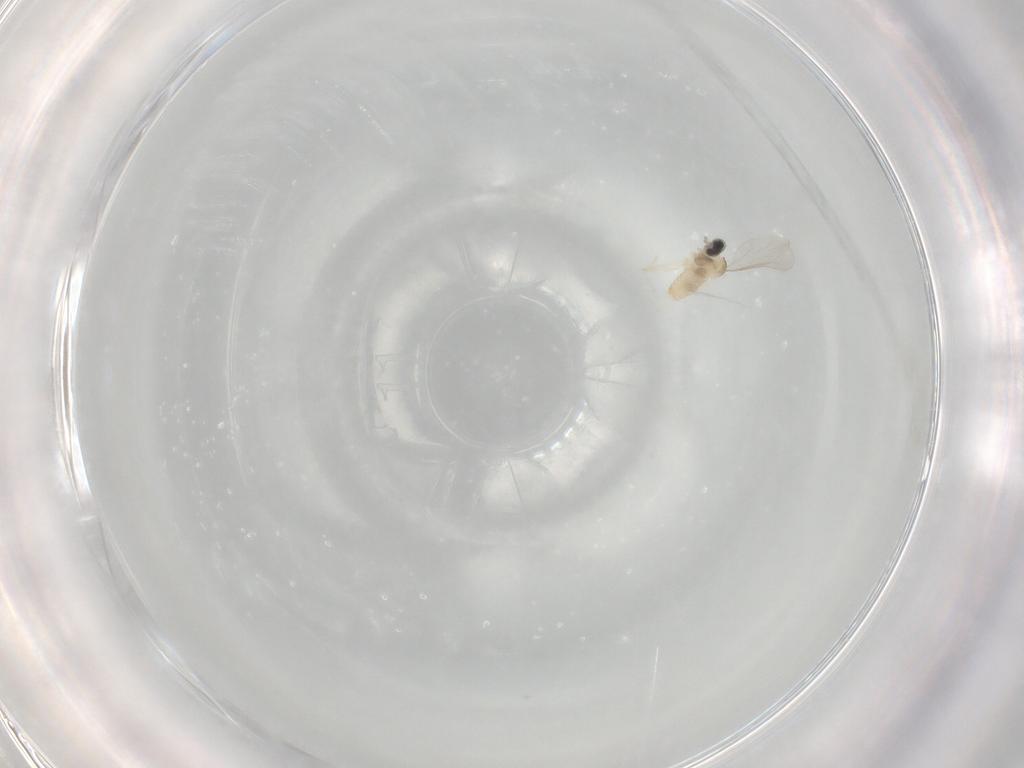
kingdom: Animalia
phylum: Arthropoda
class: Insecta
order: Diptera
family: Cecidomyiidae
